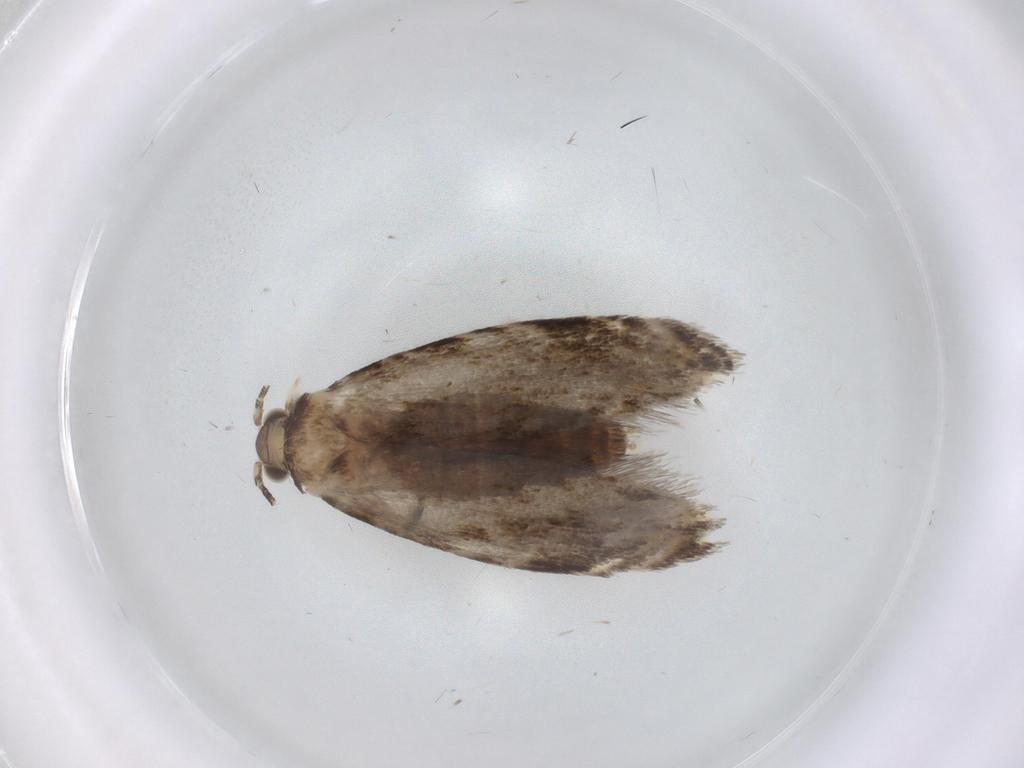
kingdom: Animalia
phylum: Arthropoda
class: Insecta
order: Lepidoptera
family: Tineidae
